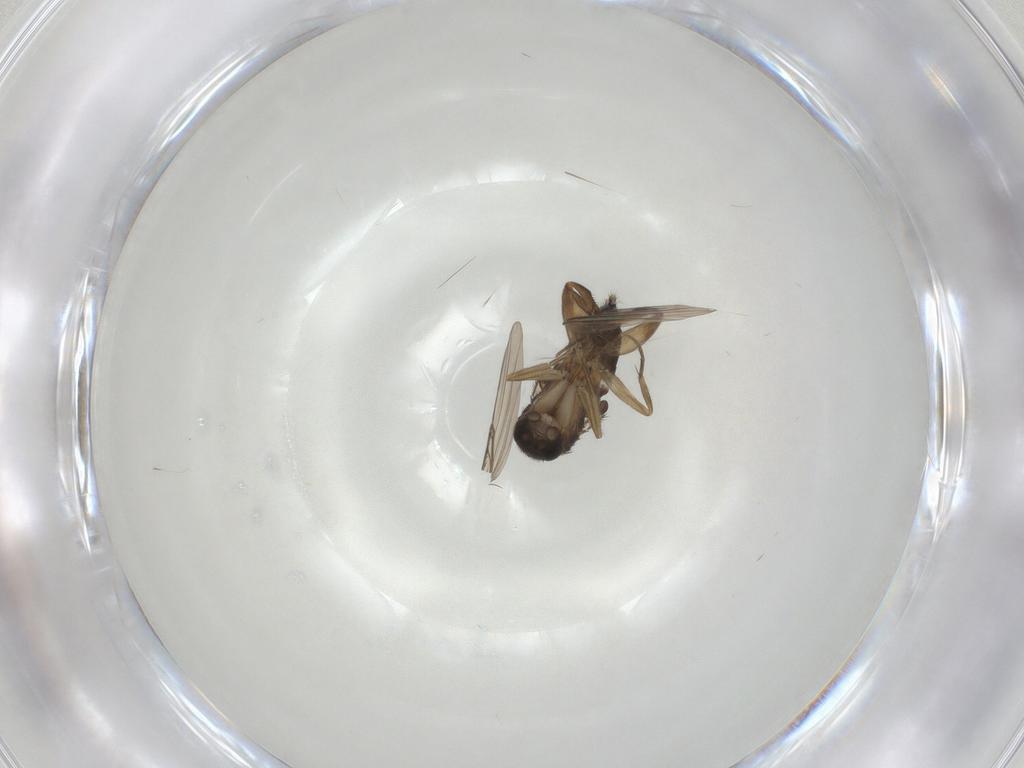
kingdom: Animalia
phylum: Arthropoda
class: Insecta
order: Diptera
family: Phoridae
